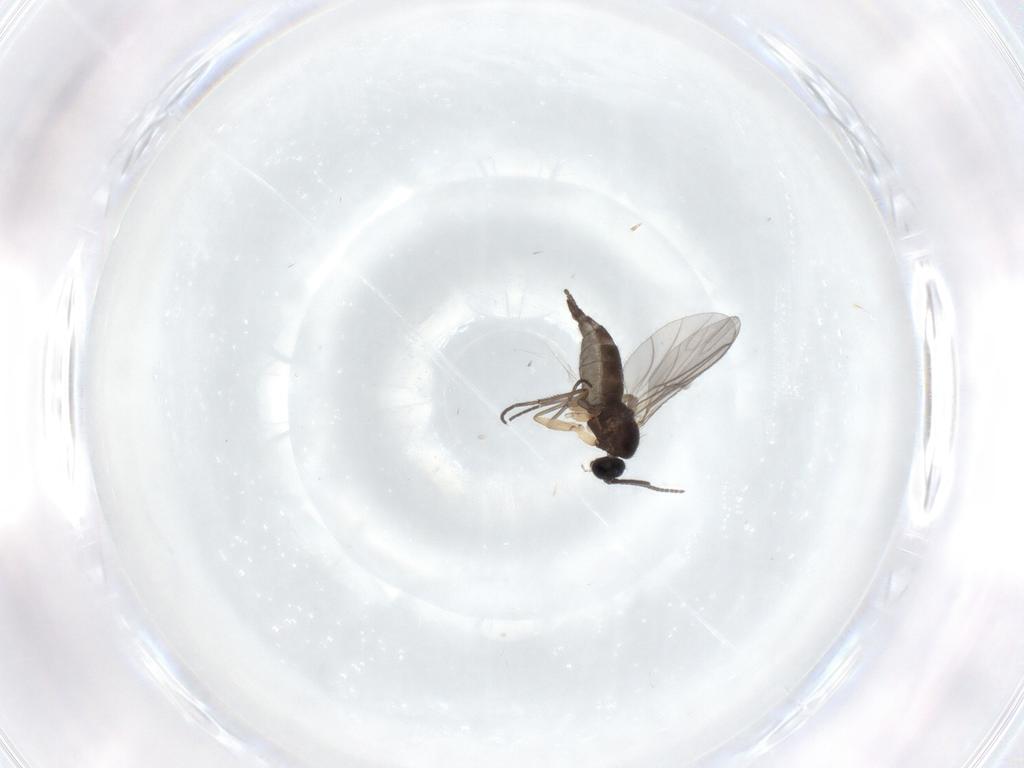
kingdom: Animalia
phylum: Arthropoda
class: Insecta
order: Diptera
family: Sciaridae
